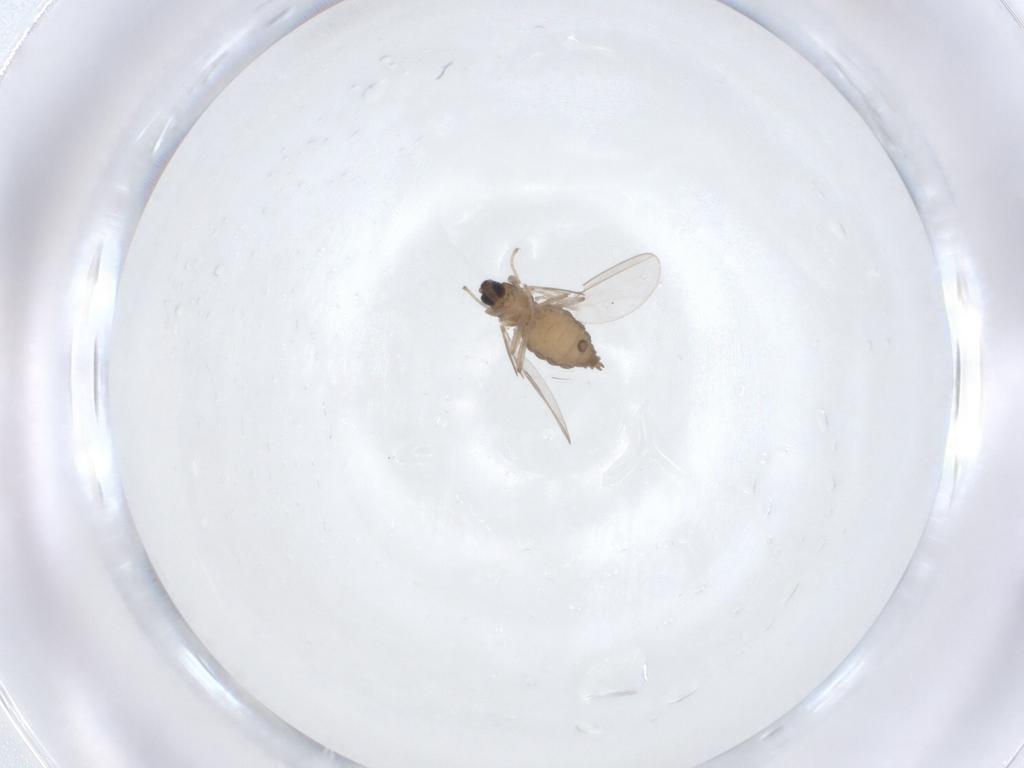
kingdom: Animalia
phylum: Arthropoda
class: Insecta
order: Diptera
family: Cecidomyiidae
